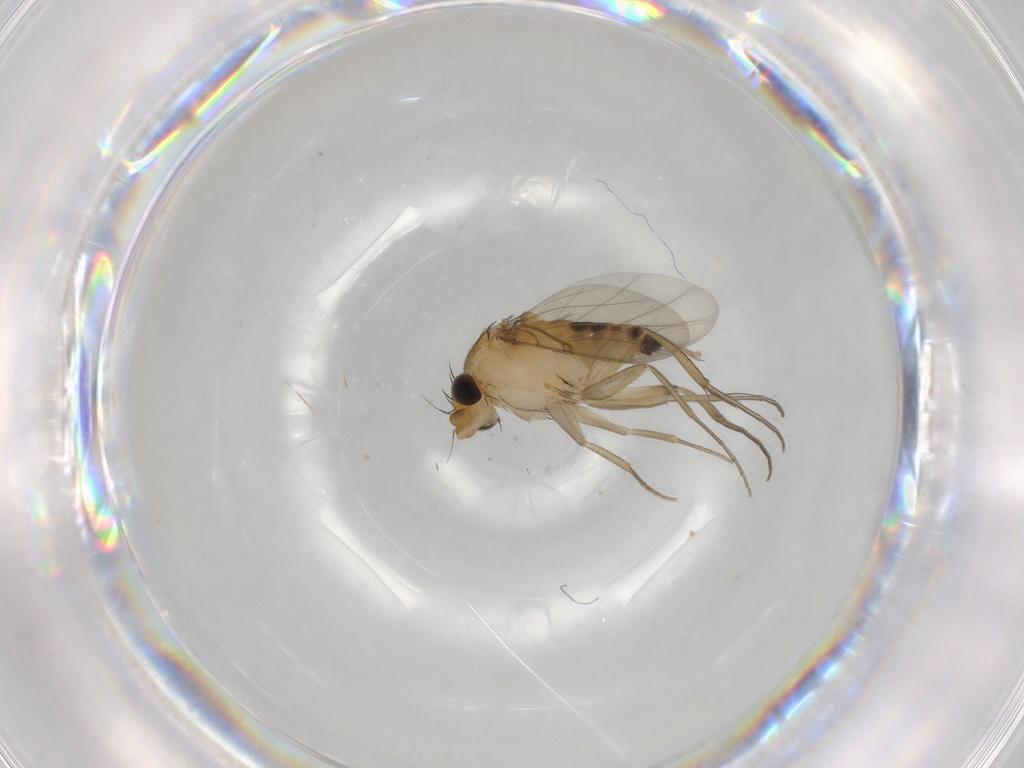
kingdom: Animalia
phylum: Arthropoda
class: Insecta
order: Diptera
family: Phoridae
